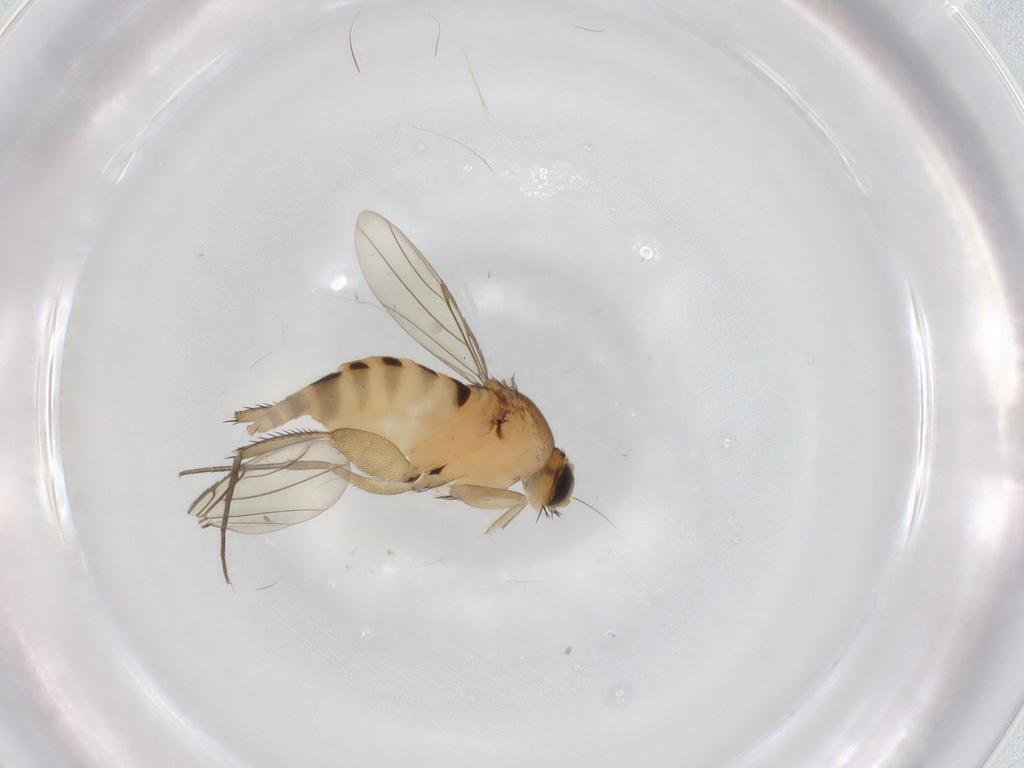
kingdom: Animalia
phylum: Arthropoda
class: Insecta
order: Diptera
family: Phoridae
